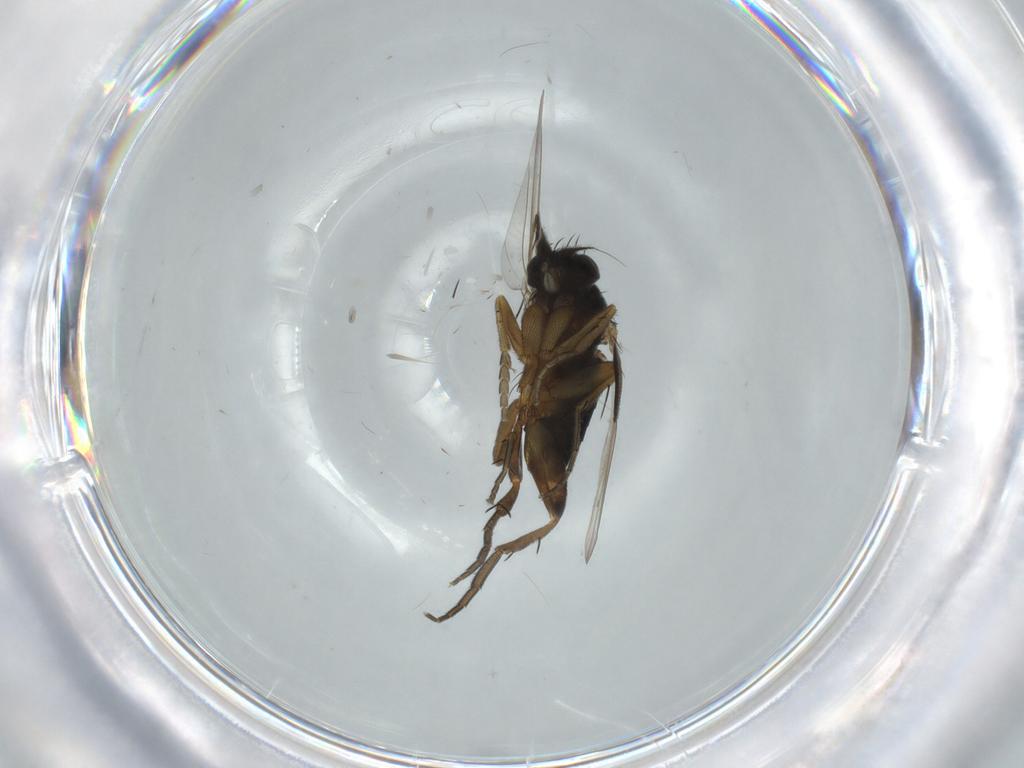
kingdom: Animalia
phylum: Arthropoda
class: Insecta
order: Diptera
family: Phoridae
